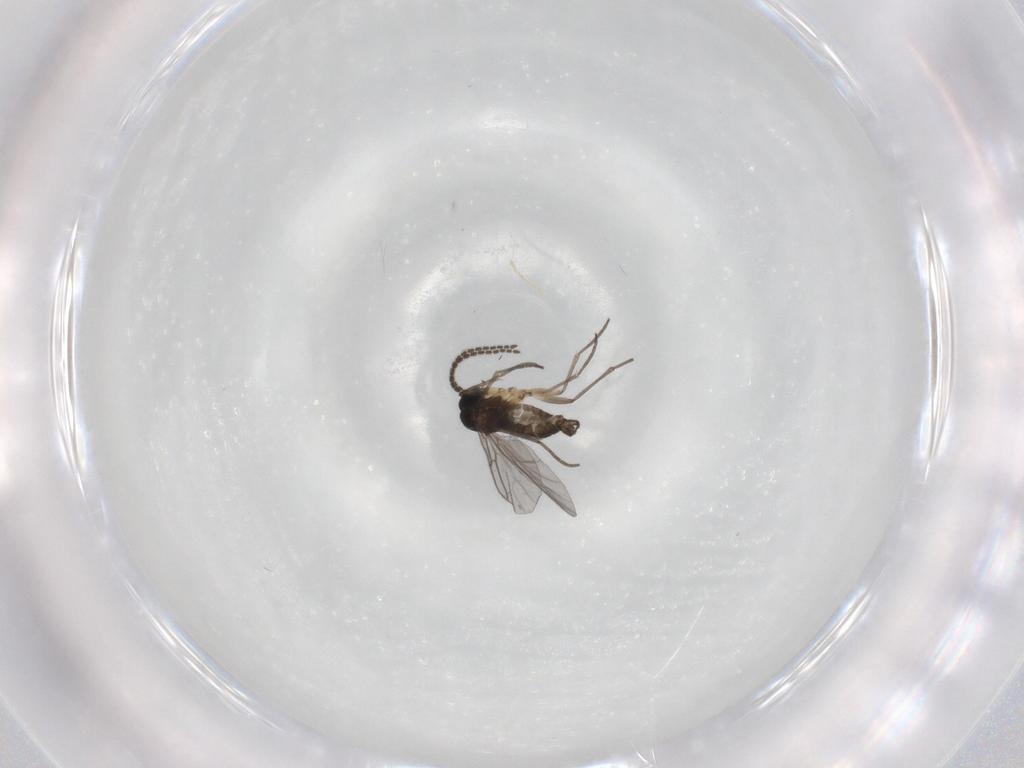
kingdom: Animalia
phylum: Arthropoda
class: Insecta
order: Diptera
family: Sciaridae
